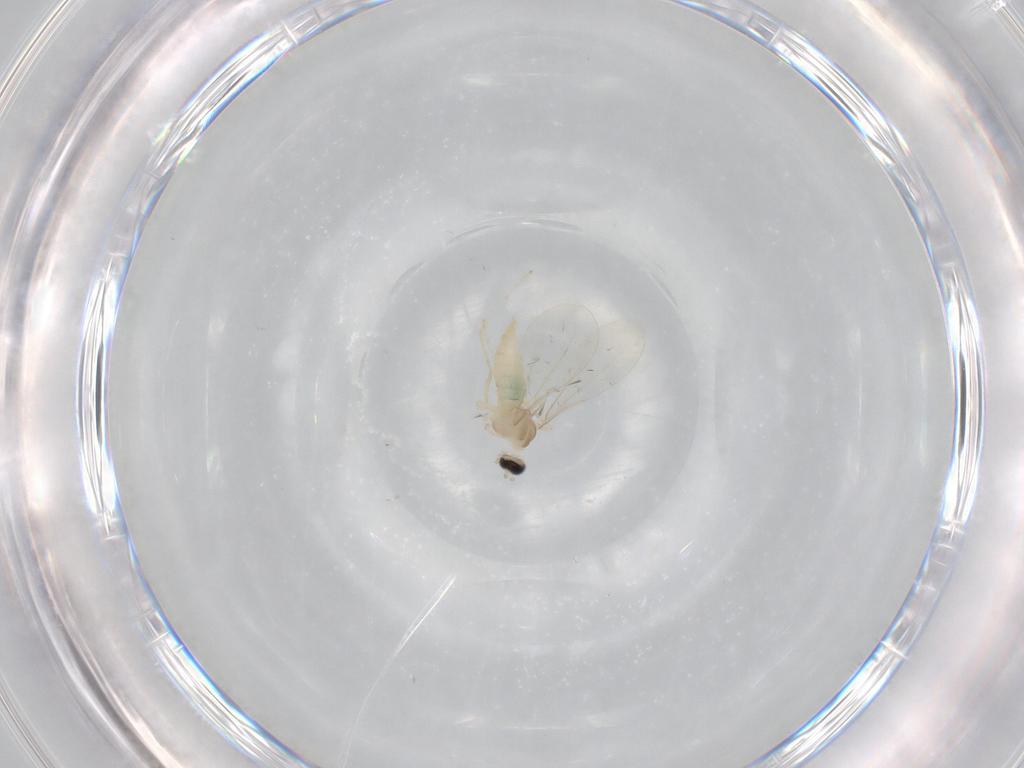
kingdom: Animalia
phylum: Arthropoda
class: Insecta
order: Diptera
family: Cecidomyiidae
